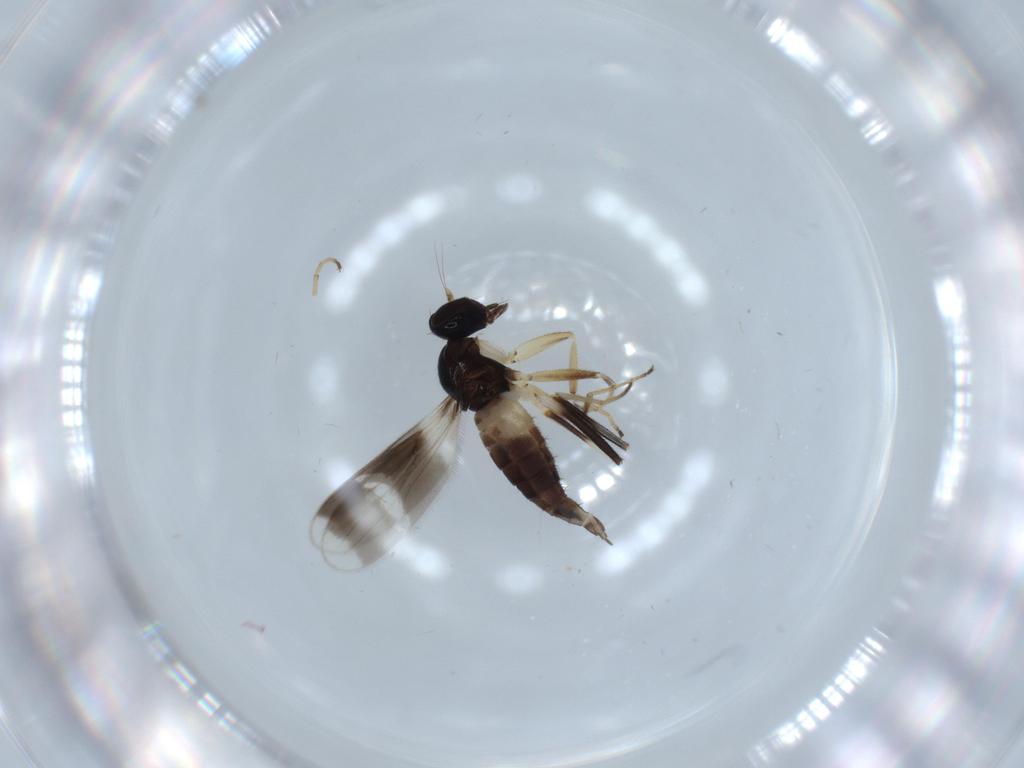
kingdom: Animalia
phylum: Arthropoda
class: Insecta
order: Diptera
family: Hybotidae
